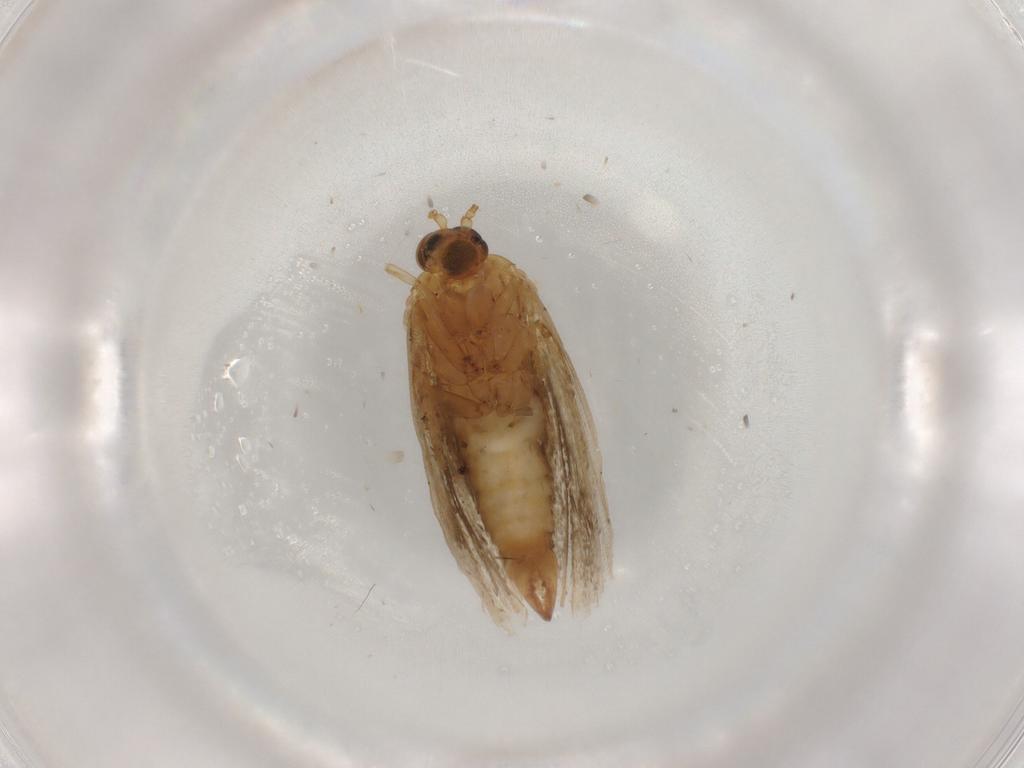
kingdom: Animalia
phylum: Arthropoda
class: Insecta
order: Lepidoptera
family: Tortricidae
